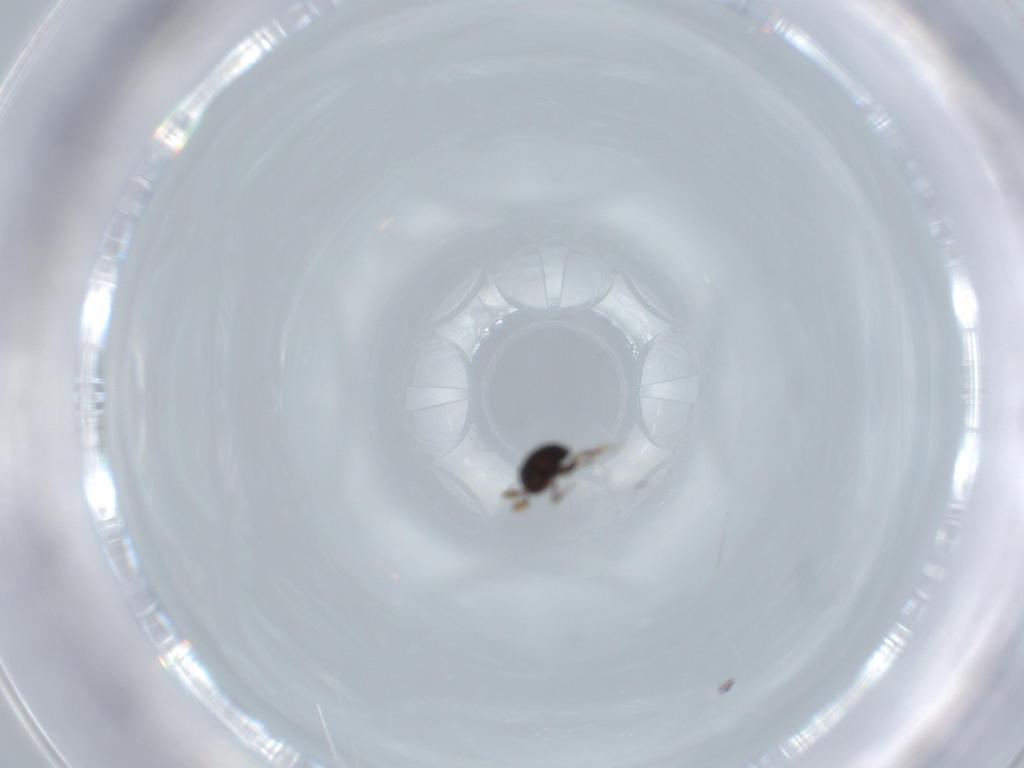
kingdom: Animalia
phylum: Arthropoda
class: Insecta
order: Hymenoptera
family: Scelionidae
